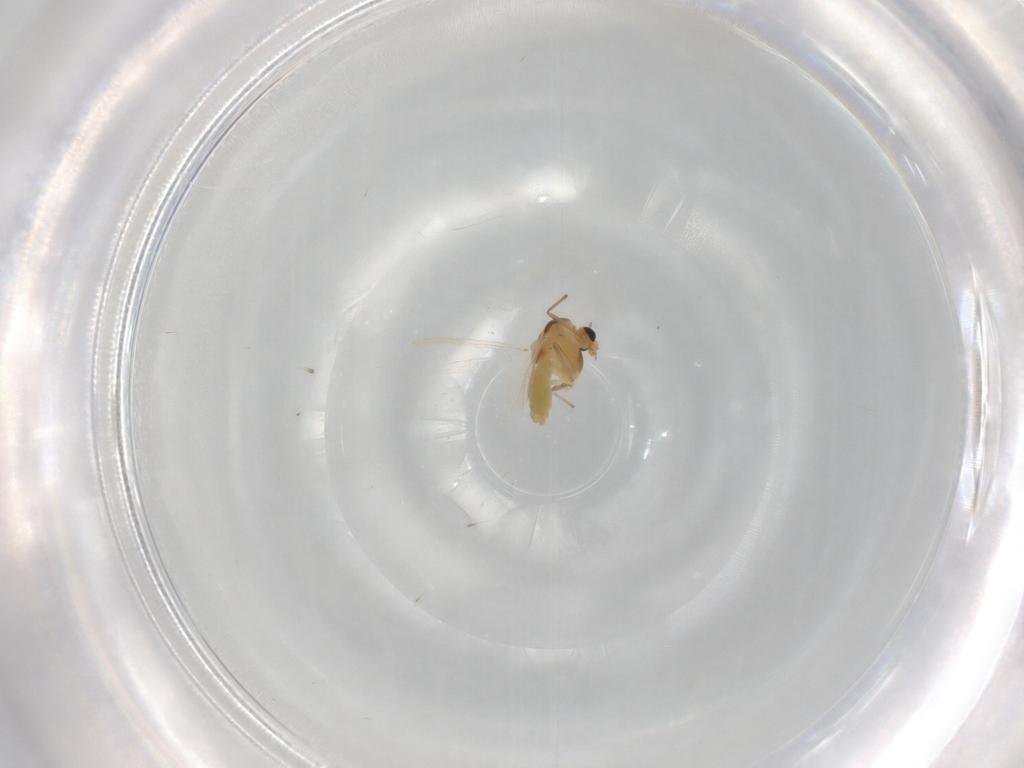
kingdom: Animalia
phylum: Arthropoda
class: Insecta
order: Diptera
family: Chironomidae
